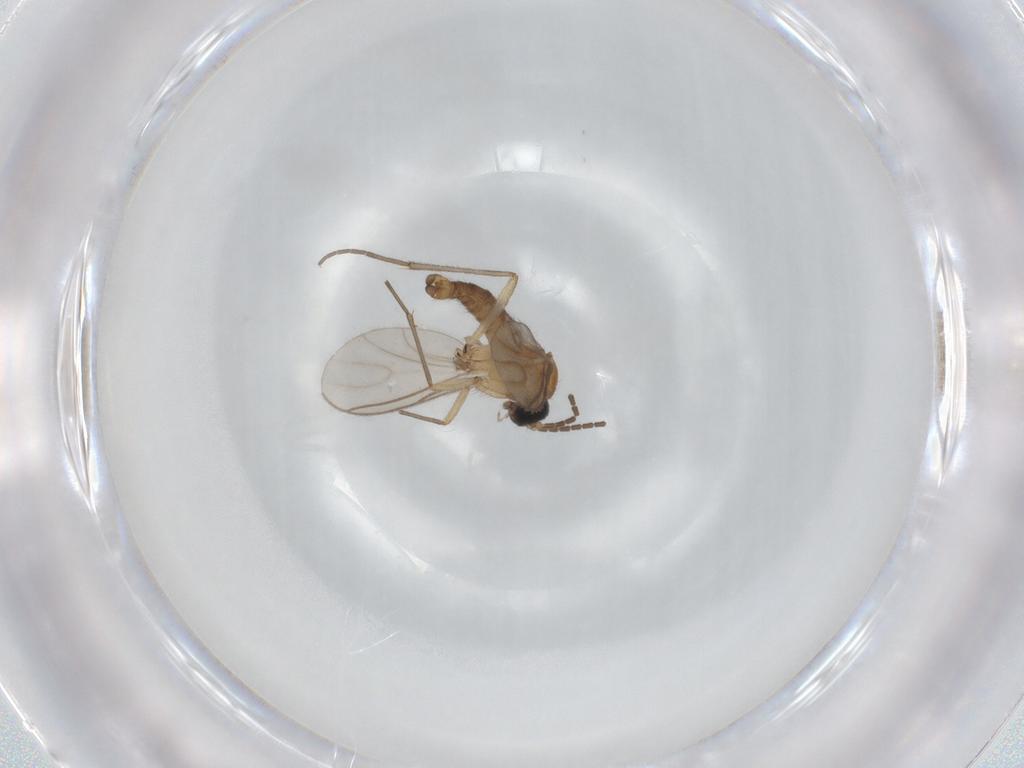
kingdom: Animalia
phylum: Arthropoda
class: Insecta
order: Diptera
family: Sciaridae
